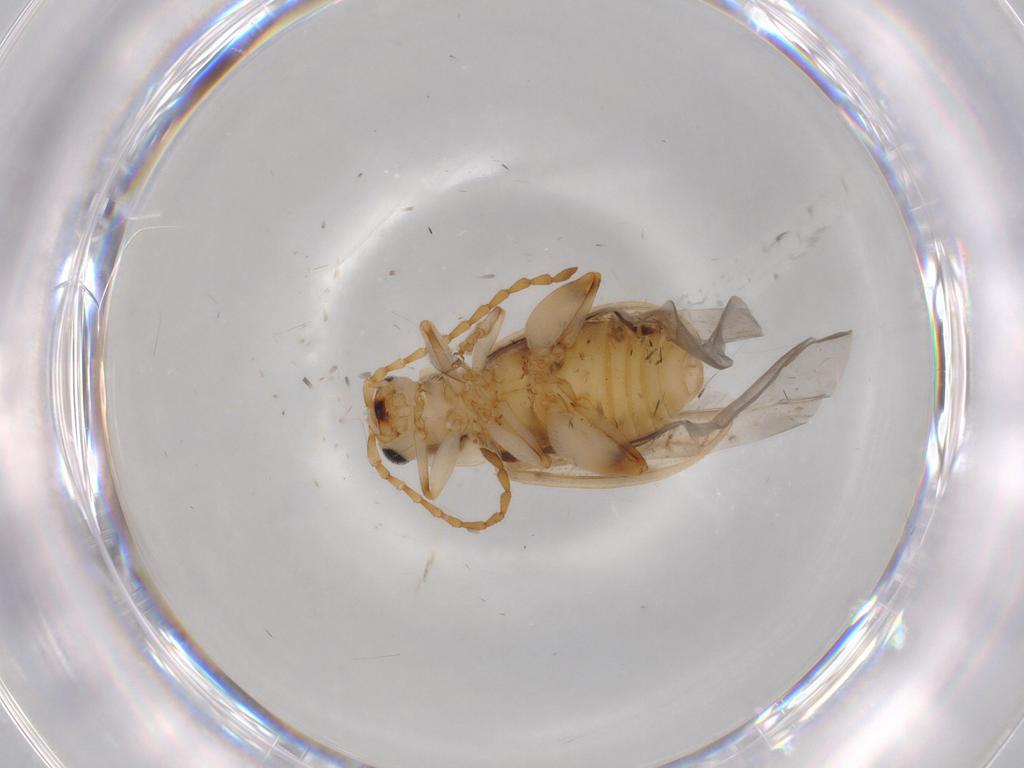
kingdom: Animalia
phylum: Arthropoda
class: Insecta
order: Coleoptera
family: Chrysomelidae
